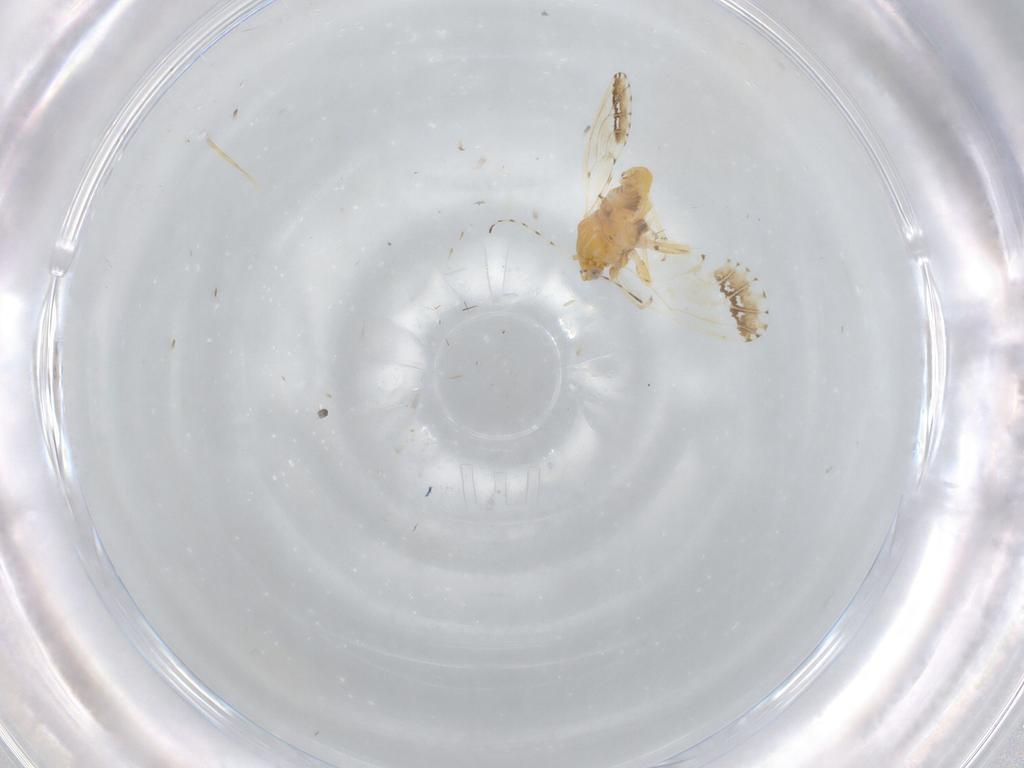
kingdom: Animalia
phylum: Arthropoda
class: Insecta
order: Hemiptera
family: Psyllidae
